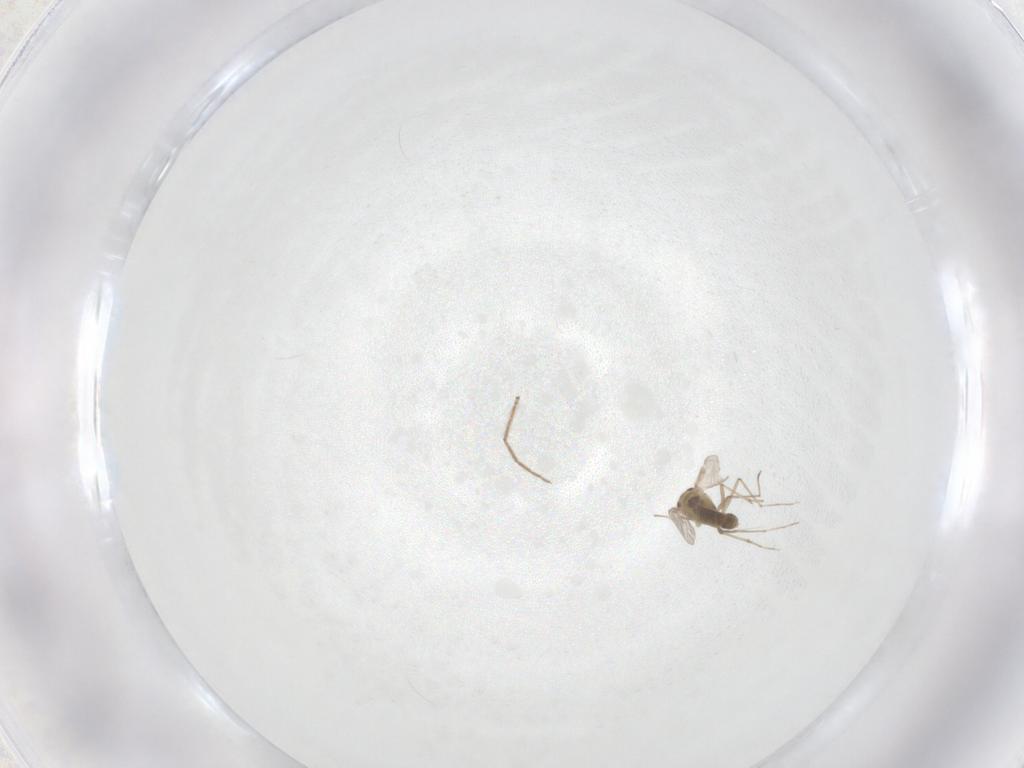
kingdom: Animalia
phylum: Arthropoda
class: Insecta
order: Diptera
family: Chironomidae
